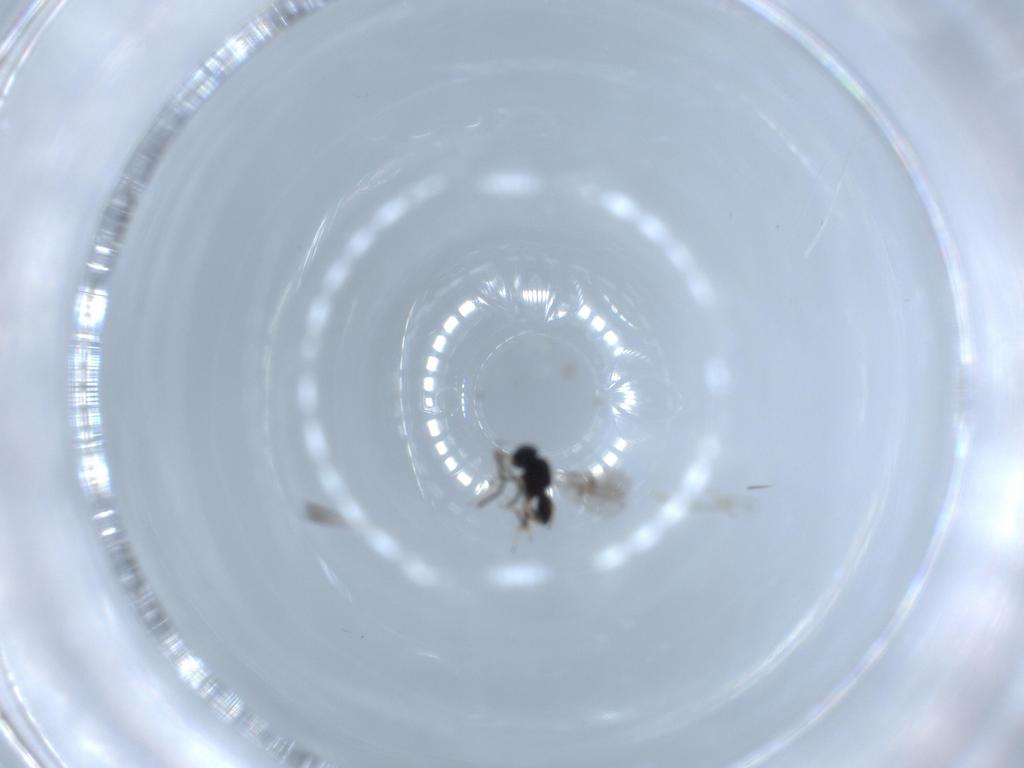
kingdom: Animalia
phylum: Arthropoda
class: Insecta
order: Hymenoptera
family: Scelionidae
